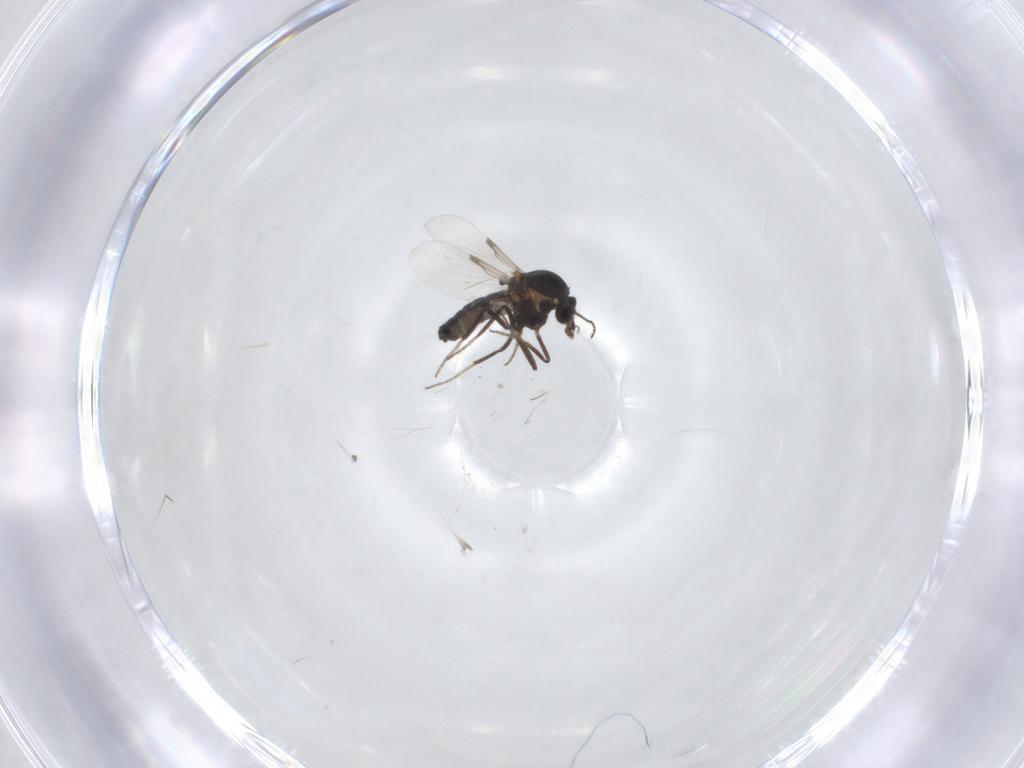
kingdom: Animalia
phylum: Arthropoda
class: Insecta
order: Diptera
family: Ceratopogonidae
